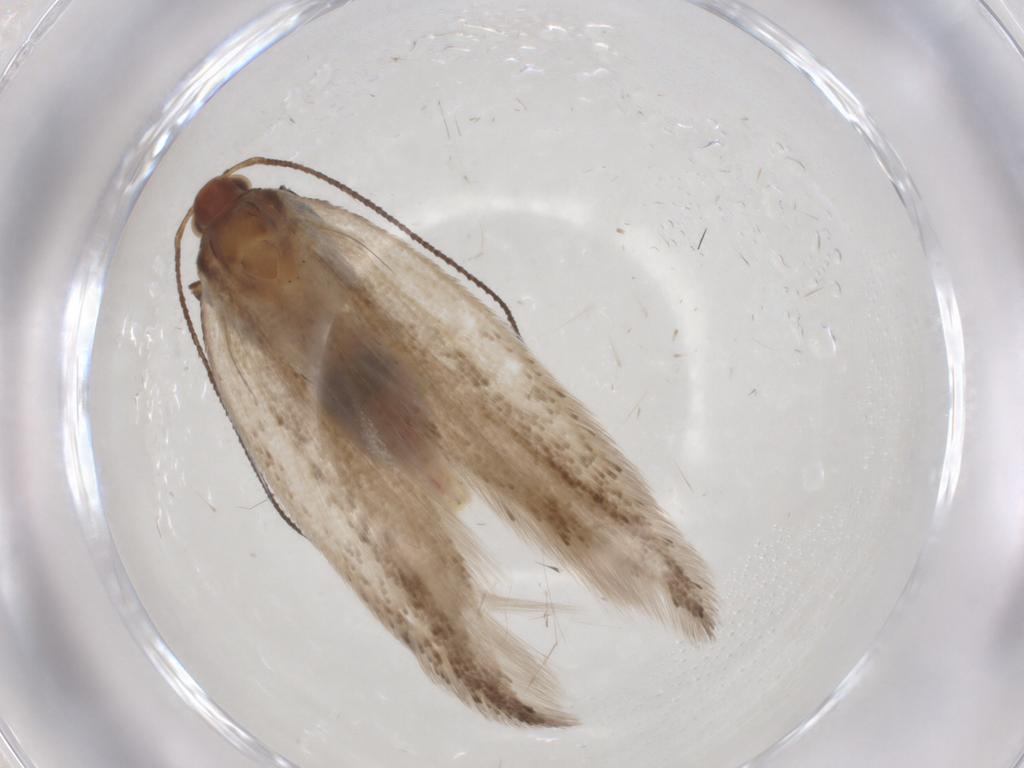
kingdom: Animalia
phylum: Arthropoda
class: Insecta
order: Lepidoptera
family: Gelechiidae
